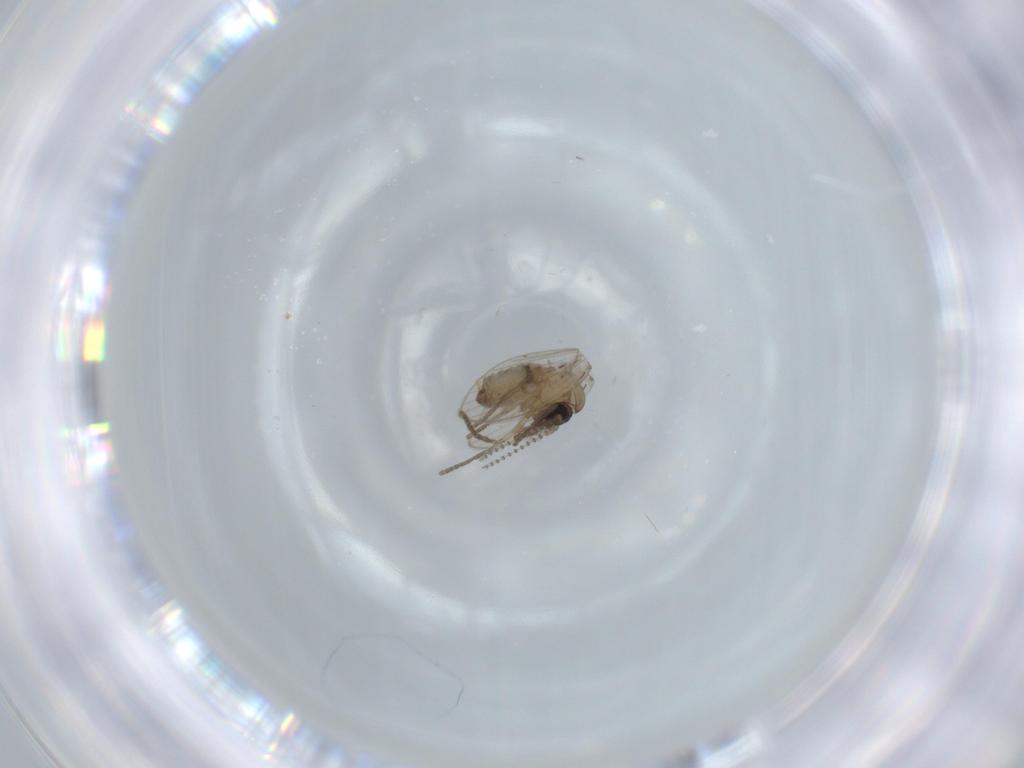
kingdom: Animalia
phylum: Arthropoda
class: Insecta
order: Diptera
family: Psychodidae
